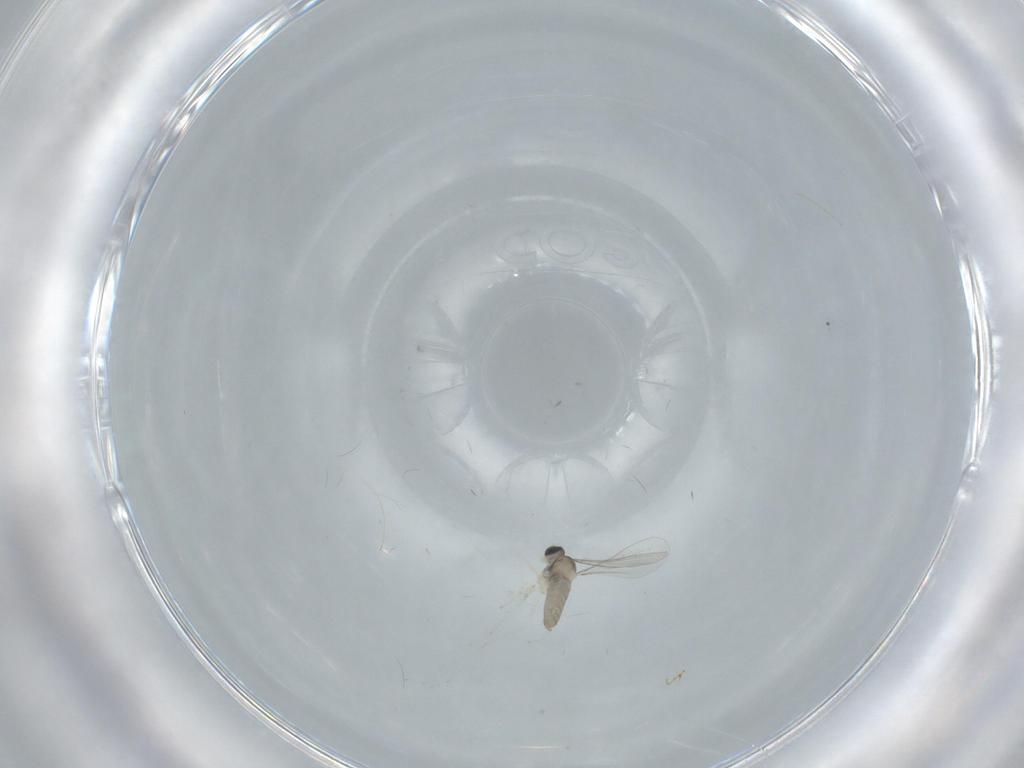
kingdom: Animalia
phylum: Arthropoda
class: Insecta
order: Diptera
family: Cecidomyiidae
